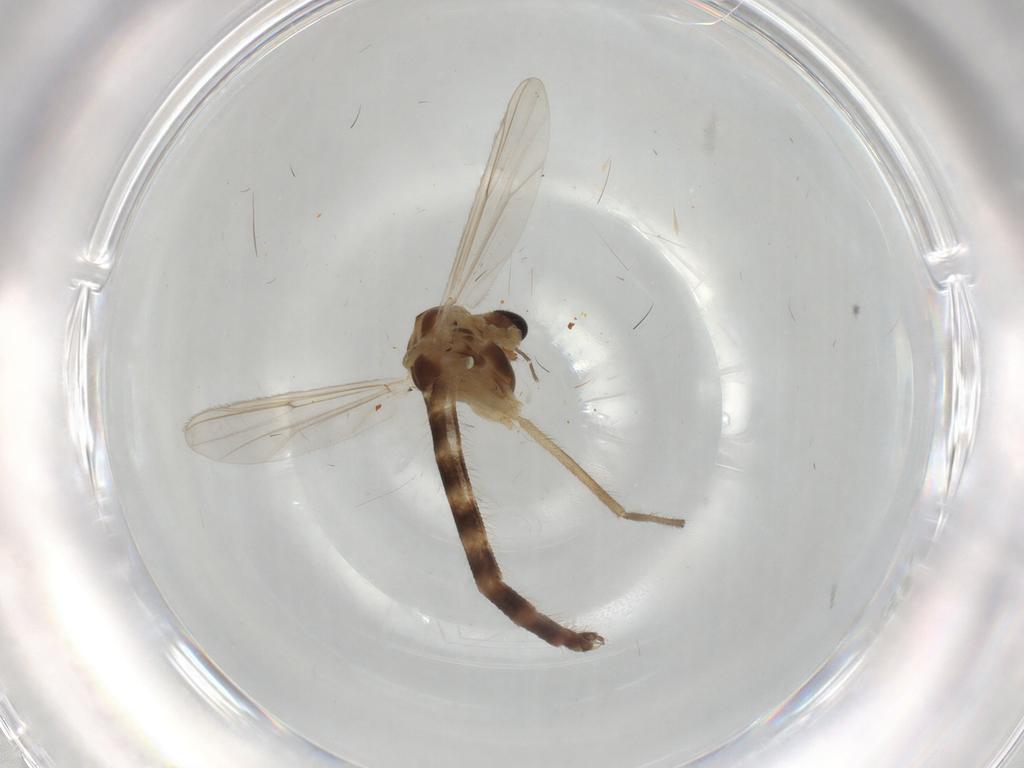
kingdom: Animalia
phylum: Arthropoda
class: Insecta
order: Diptera
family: Chironomidae
